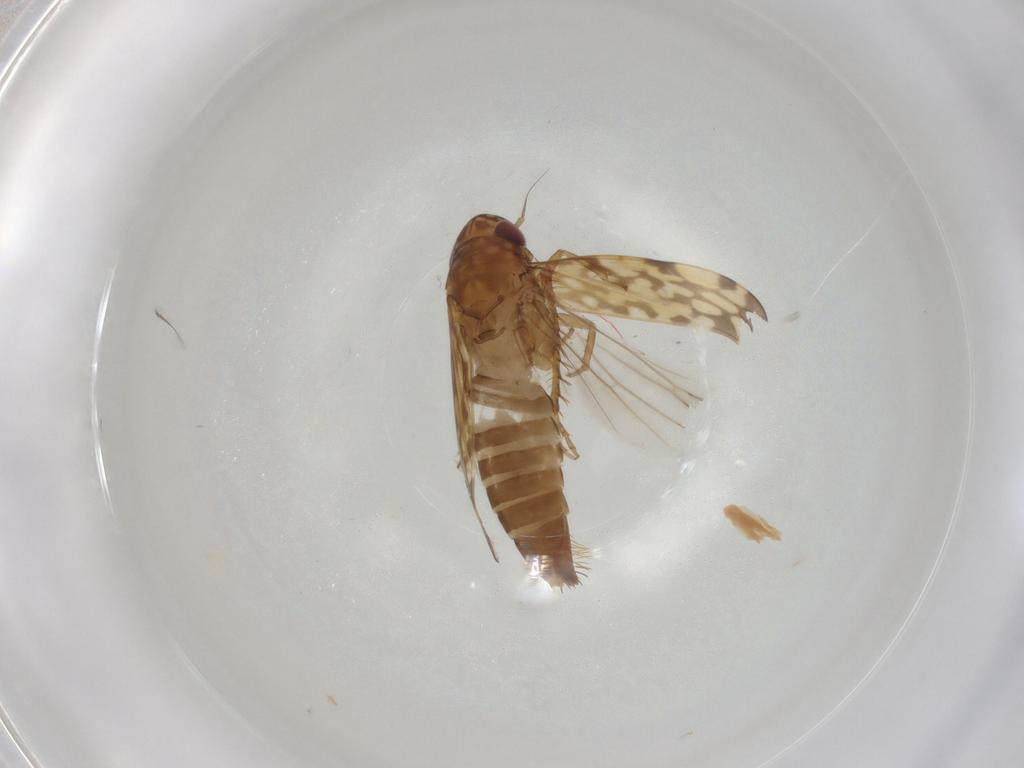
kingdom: Animalia
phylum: Arthropoda
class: Insecta
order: Hemiptera
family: Cicadellidae
